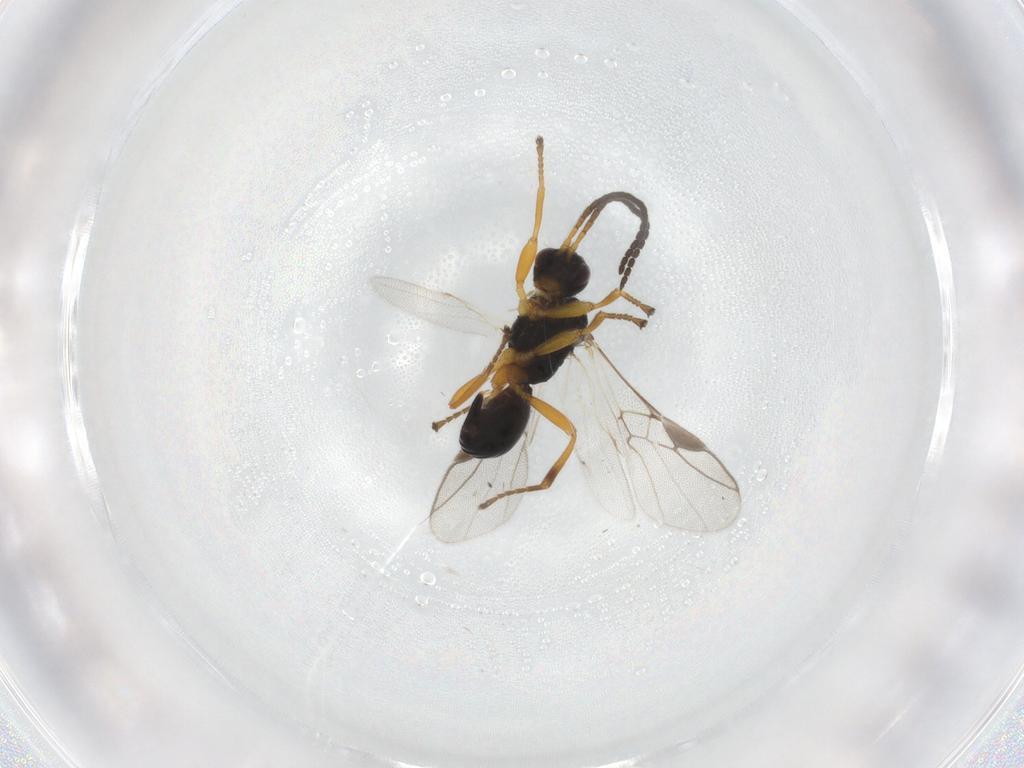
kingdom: Animalia
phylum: Arthropoda
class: Insecta
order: Hymenoptera
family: Braconidae
